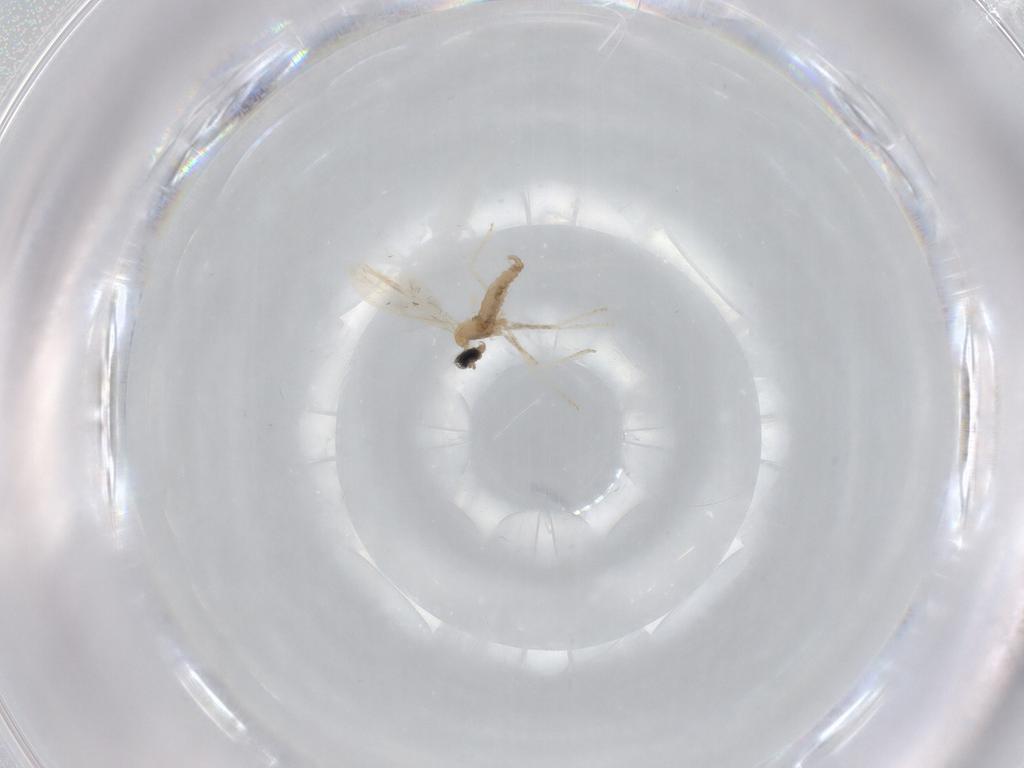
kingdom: Animalia
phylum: Arthropoda
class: Insecta
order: Diptera
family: Cecidomyiidae
